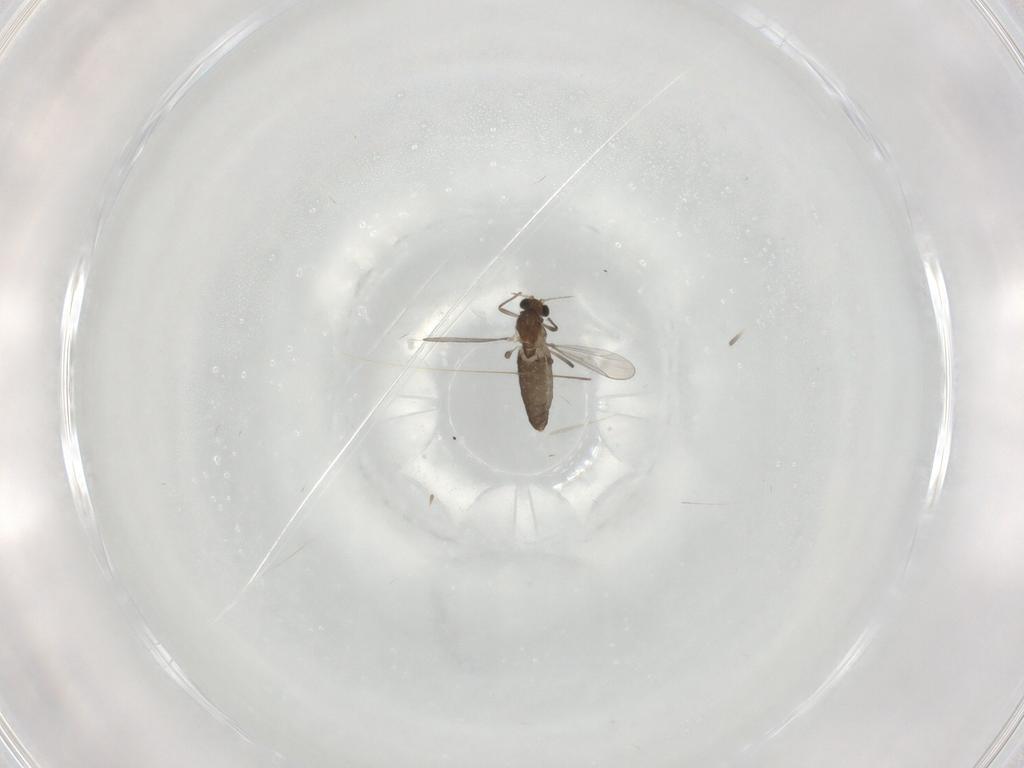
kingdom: Animalia
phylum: Arthropoda
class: Insecta
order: Diptera
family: Chironomidae
